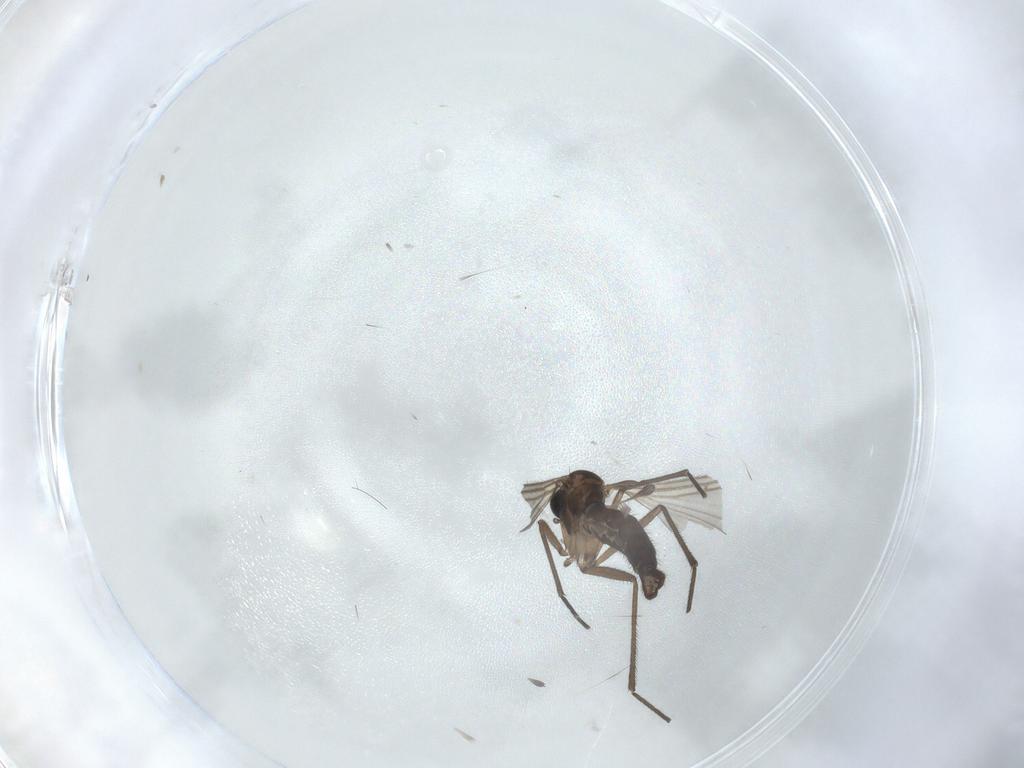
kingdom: Animalia
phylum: Arthropoda
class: Insecta
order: Diptera
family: Sciaridae
